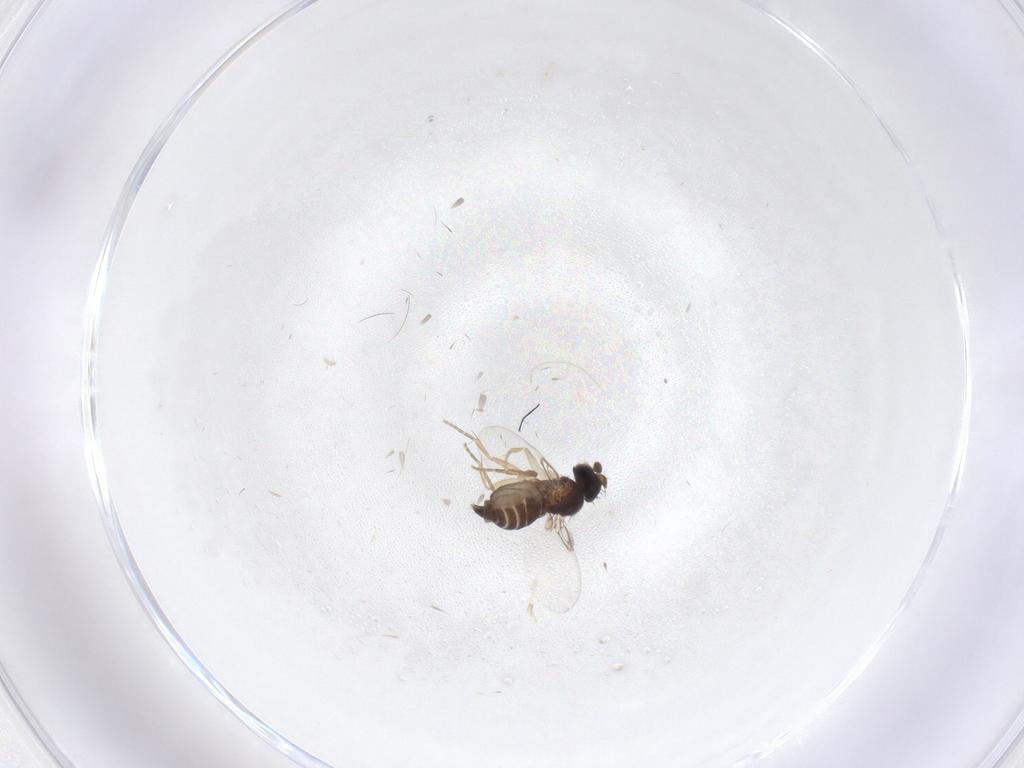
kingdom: Animalia
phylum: Arthropoda
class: Insecta
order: Diptera
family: Phoridae
